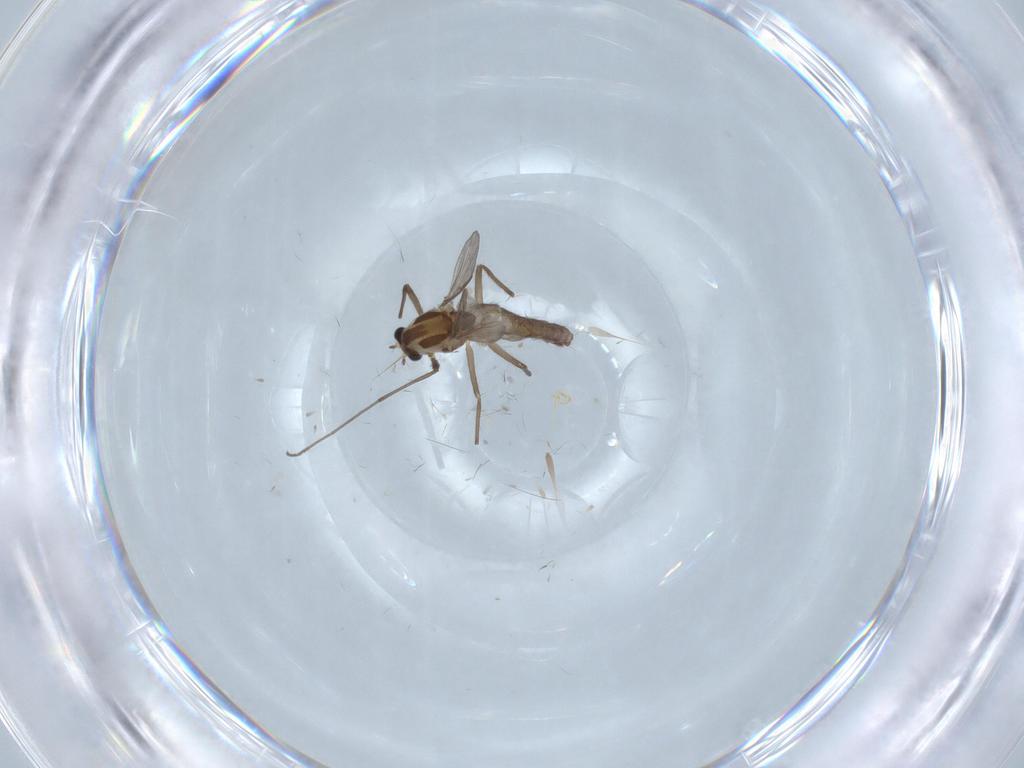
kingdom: Animalia
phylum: Arthropoda
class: Insecta
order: Diptera
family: Chironomidae
